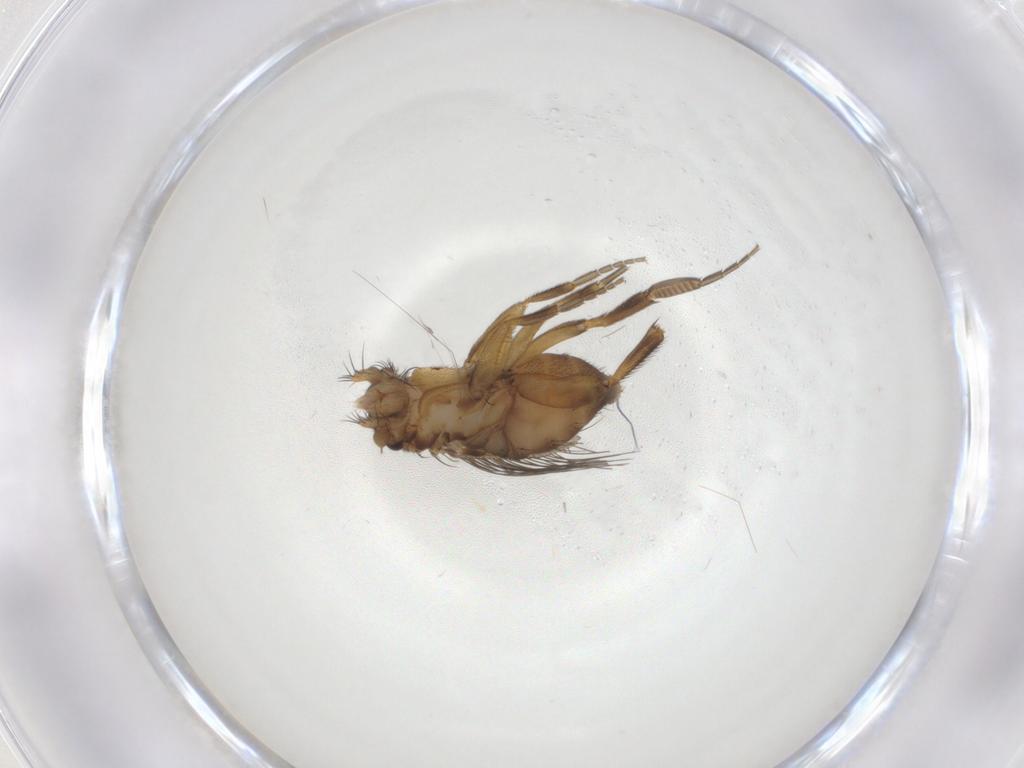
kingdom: Animalia
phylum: Arthropoda
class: Insecta
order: Diptera
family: Phoridae
